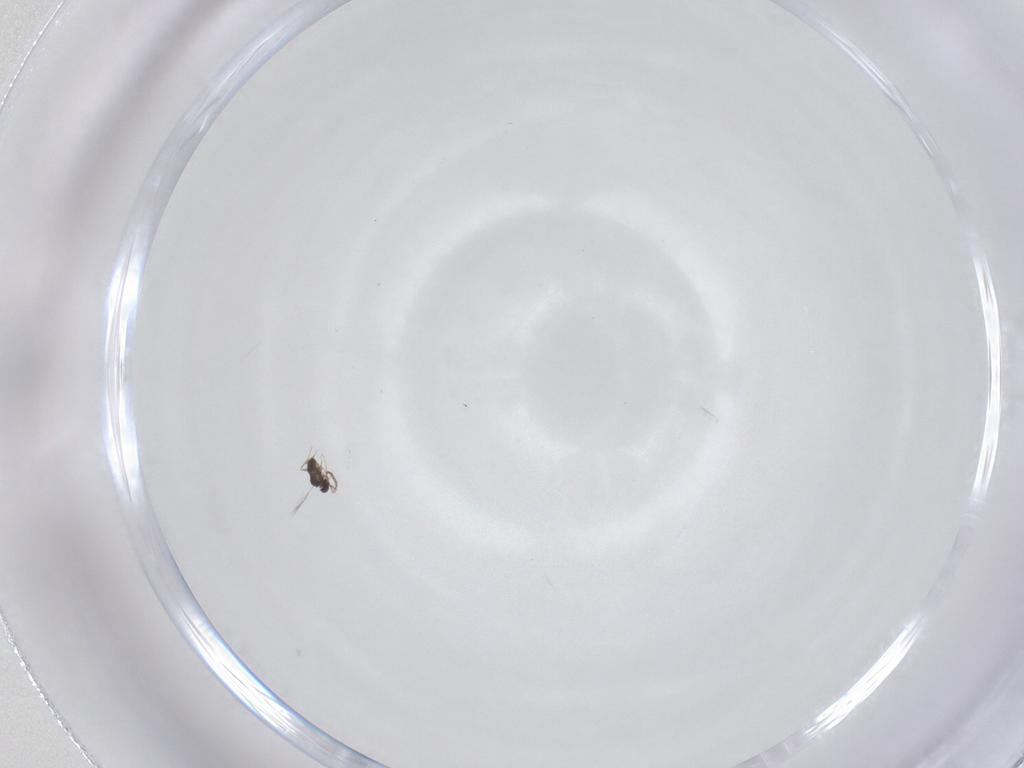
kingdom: Animalia
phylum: Arthropoda
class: Insecta
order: Hymenoptera
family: Mymaridae
